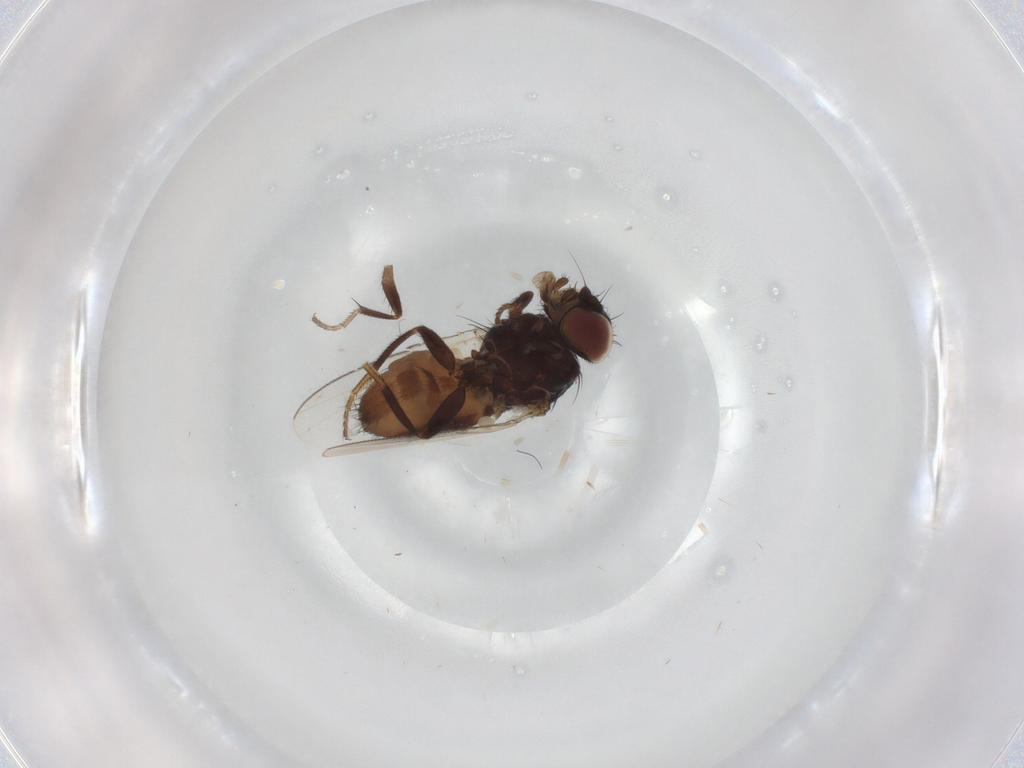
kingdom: Animalia
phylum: Arthropoda
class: Insecta
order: Diptera
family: Milichiidae
